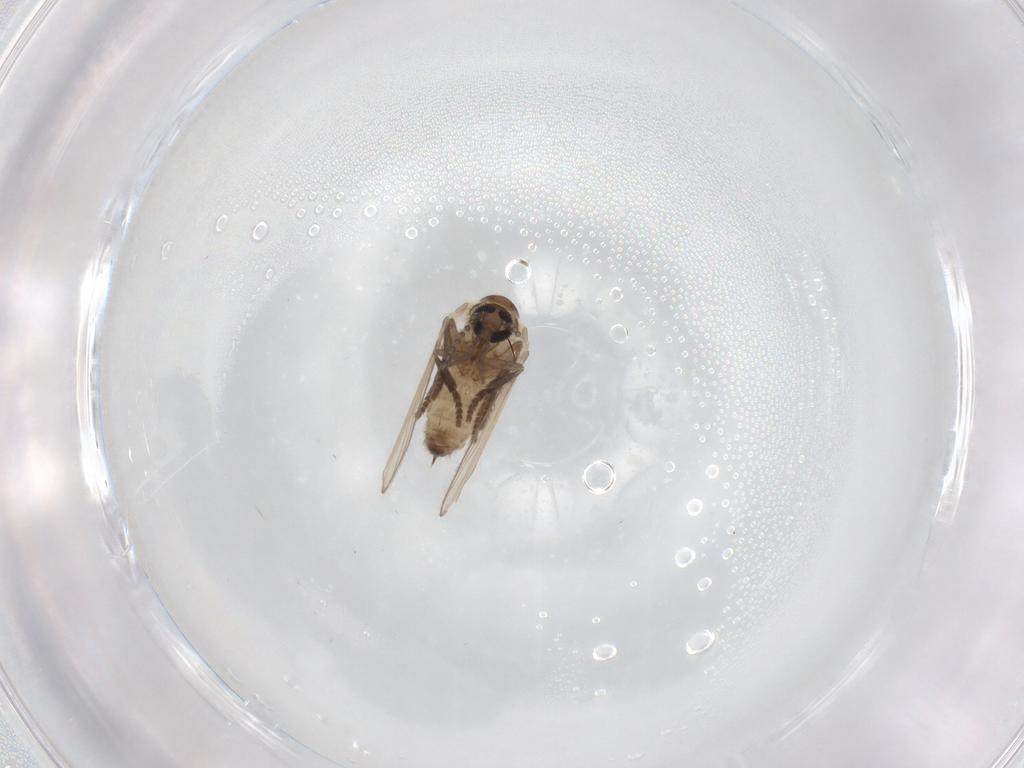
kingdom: Animalia
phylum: Arthropoda
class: Insecta
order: Diptera
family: Psychodidae
